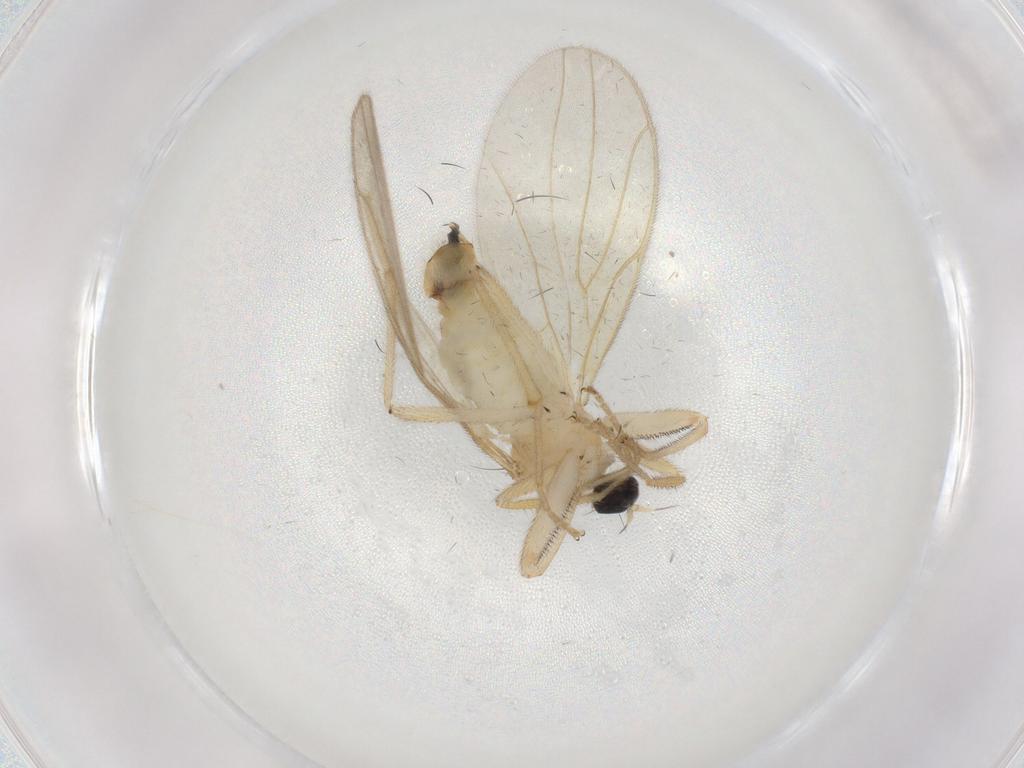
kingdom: Animalia
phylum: Arthropoda
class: Insecta
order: Diptera
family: Hybotidae
